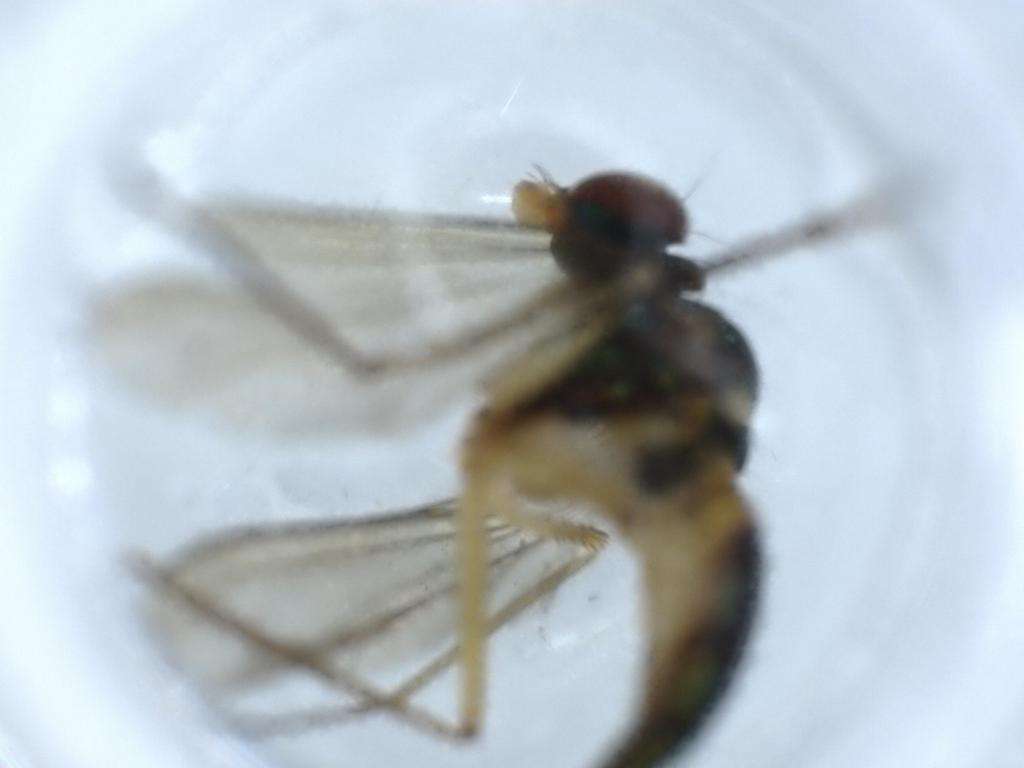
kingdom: Animalia
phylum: Arthropoda
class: Insecta
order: Diptera
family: Dolichopodidae
